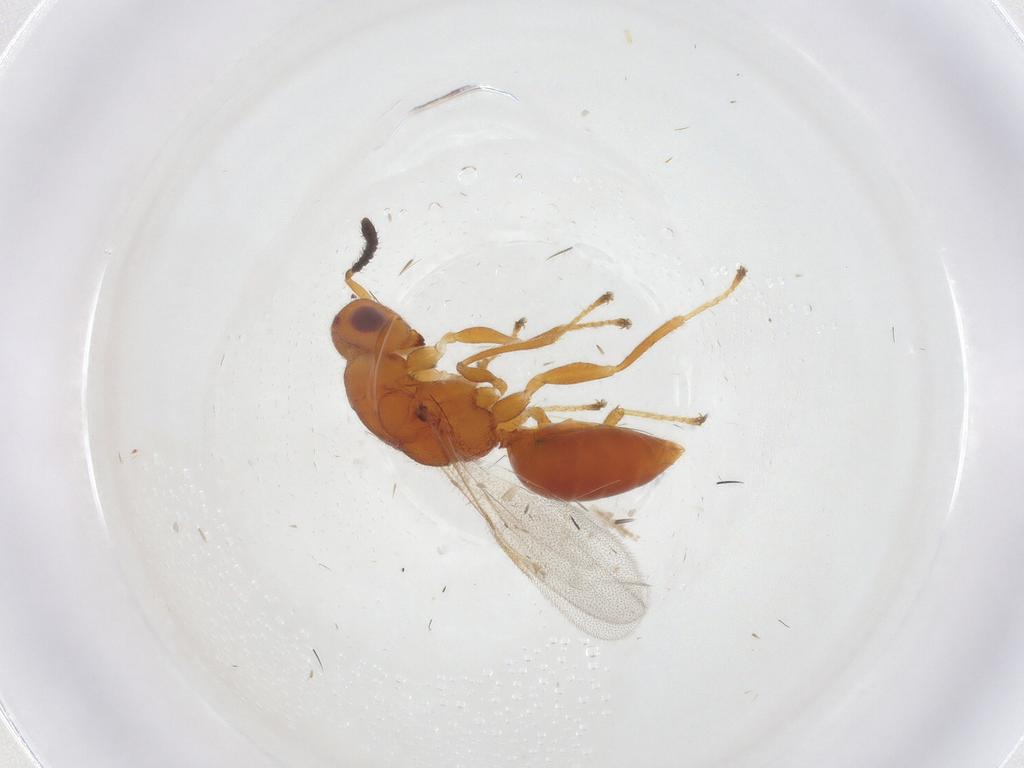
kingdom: Animalia
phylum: Arthropoda
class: Insecta
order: Hymenoptera
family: Eurytomidae
